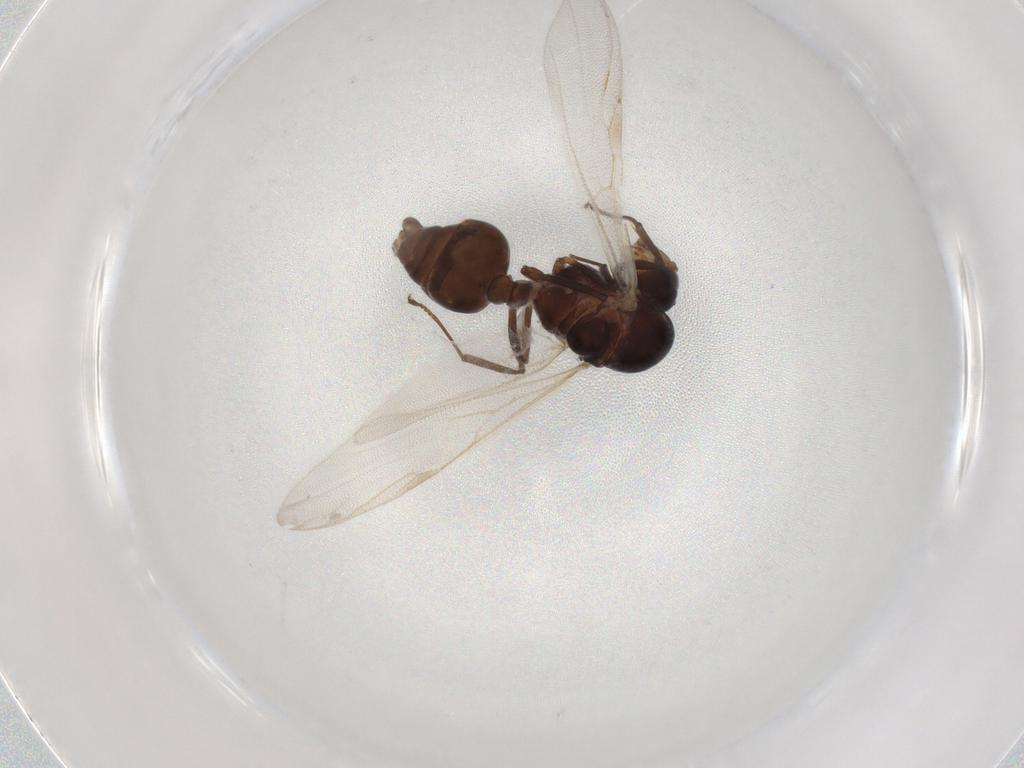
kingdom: Animalia
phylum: Arthropoda
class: Insecta
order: Hymenoptera
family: Formicidae
